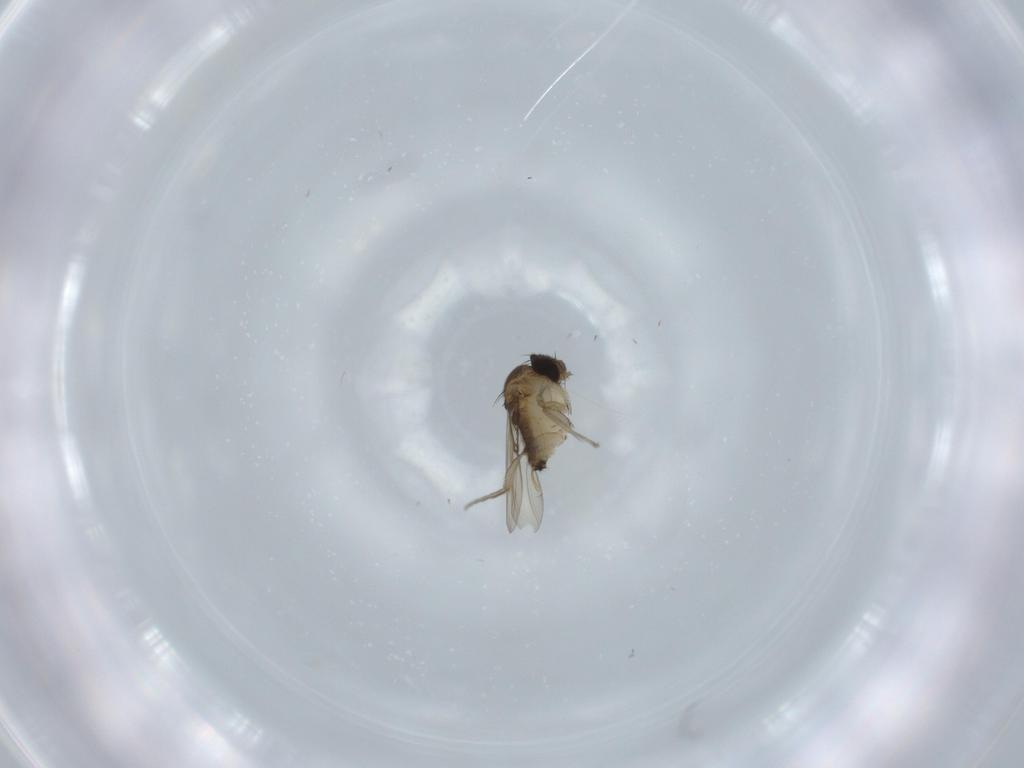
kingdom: Animalia
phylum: Arthropoda
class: Insecta
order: Diptera
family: Phoridae
